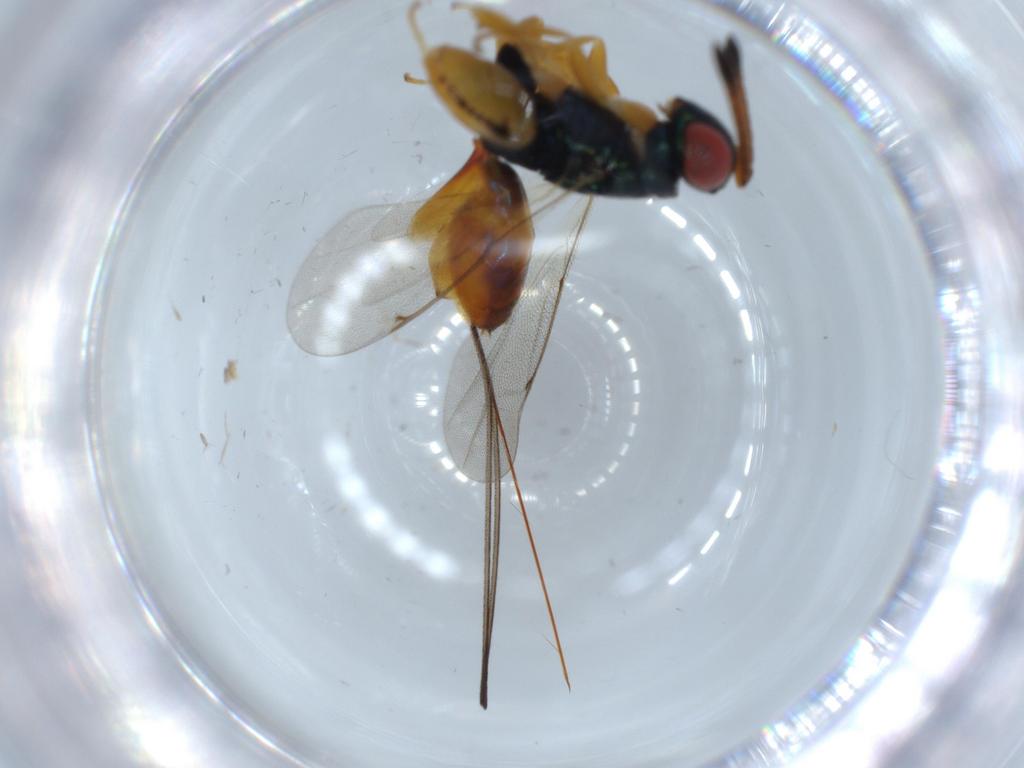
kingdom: Animalia
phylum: Arthropoda
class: Insecta
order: Hymenoptera
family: Torymidae
